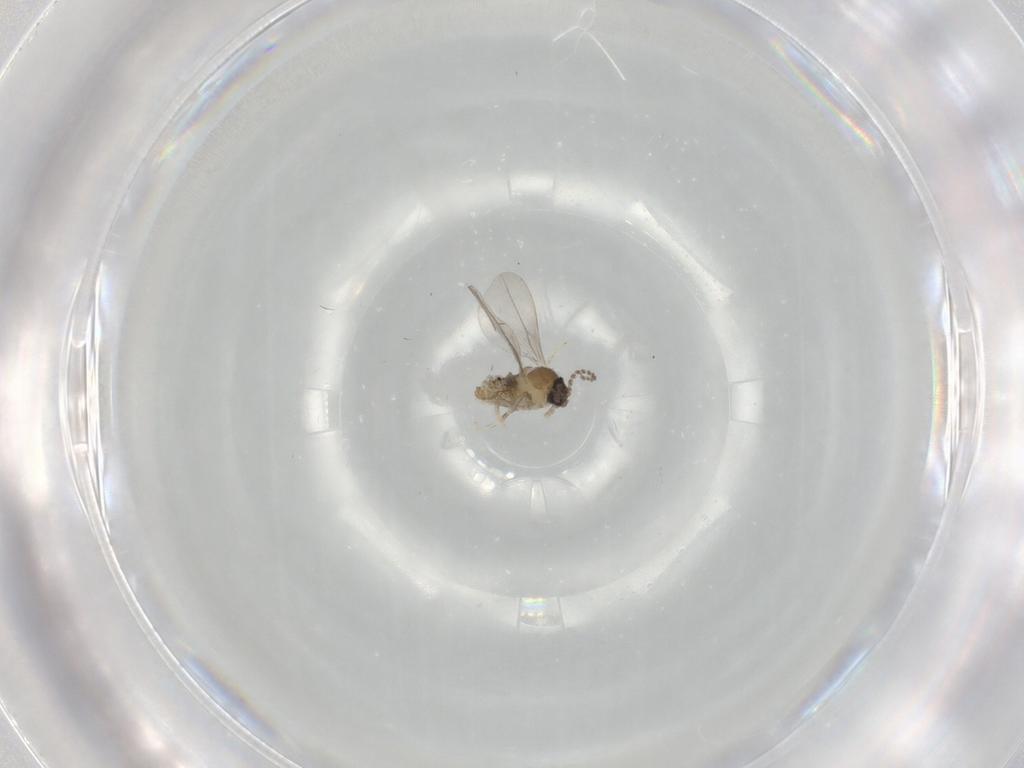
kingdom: Animalia
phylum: Arthropoda
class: Insecta
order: Diptera
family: Cecidomyiidae
